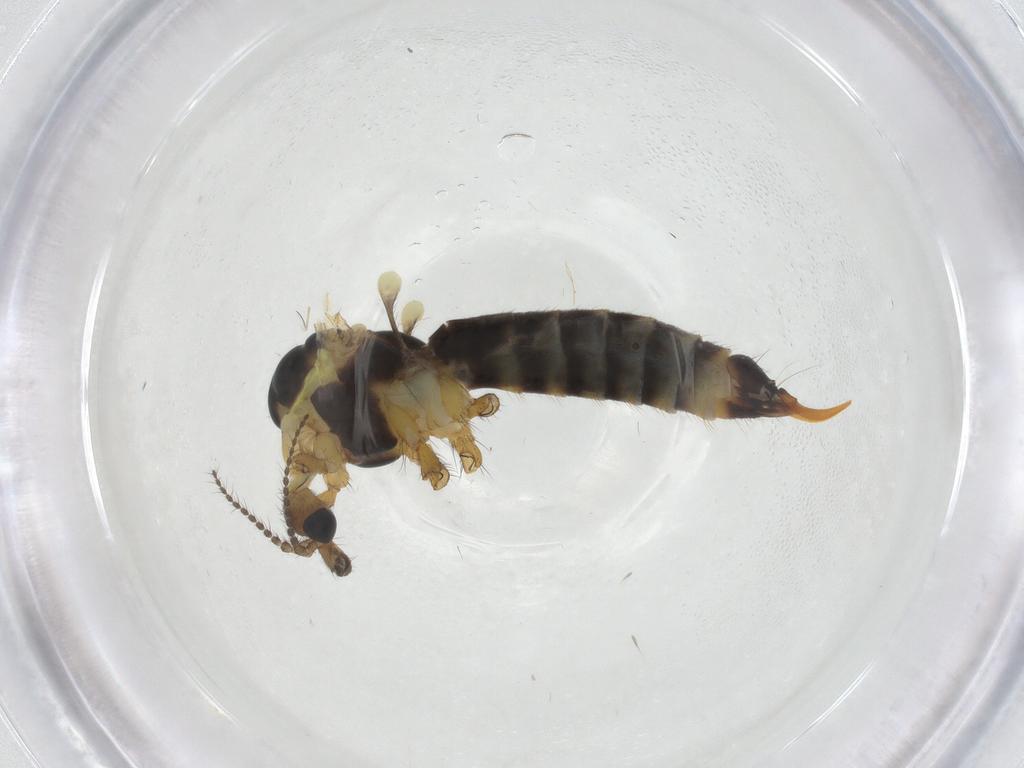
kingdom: Animalia
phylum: Arthropoda
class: Insecta
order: Diptera
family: Limoniidae
